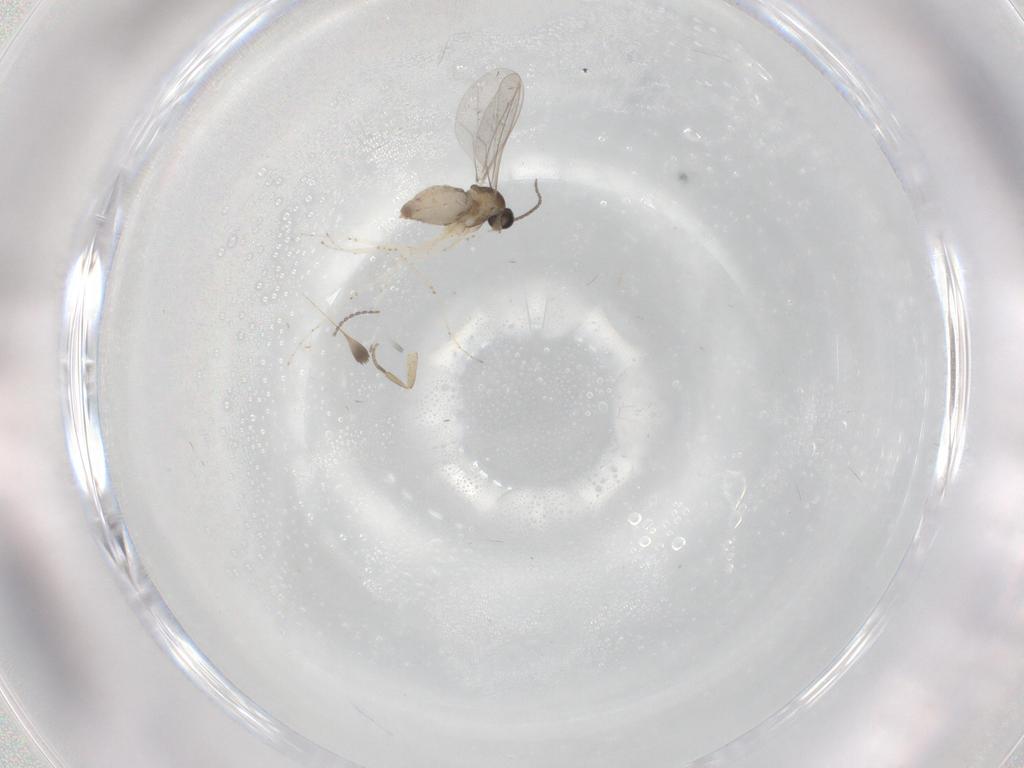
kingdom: Animalia
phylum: Arthropoda
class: Insecta
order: Diptera
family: Cecidomyiidae
